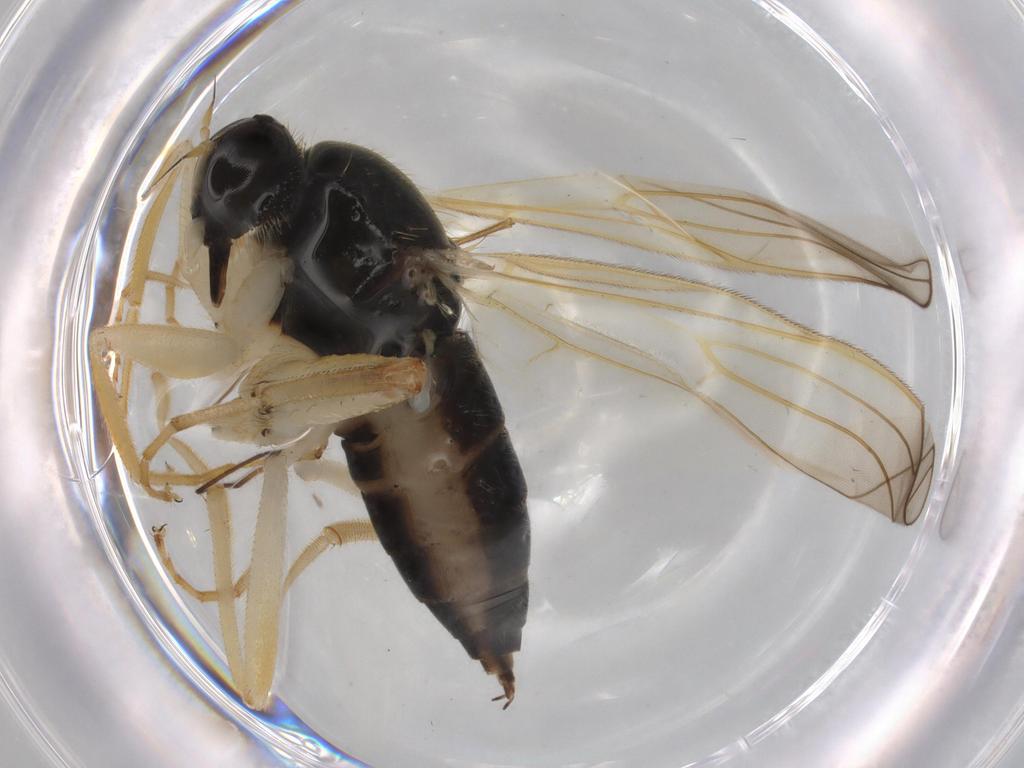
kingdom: Animalia
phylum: Arthropoda
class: Insecta
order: Diptera
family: Hybotidae
